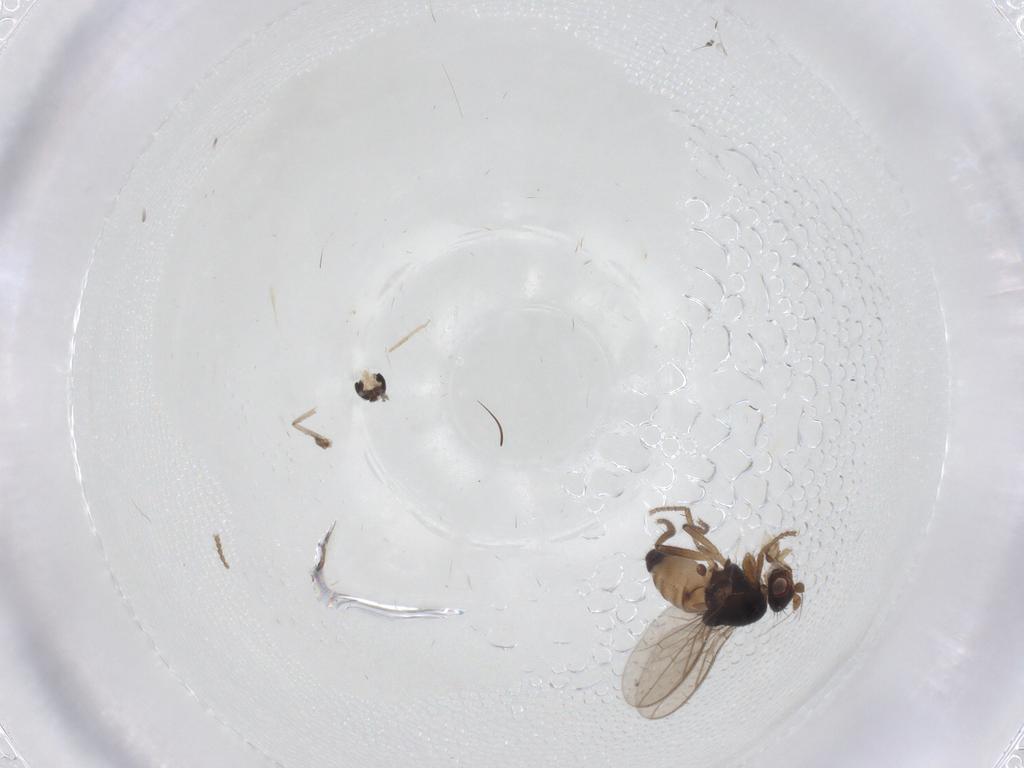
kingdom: Animalia
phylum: Arthropoda
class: Insecta
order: Diptera
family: Sphaeroceridae
